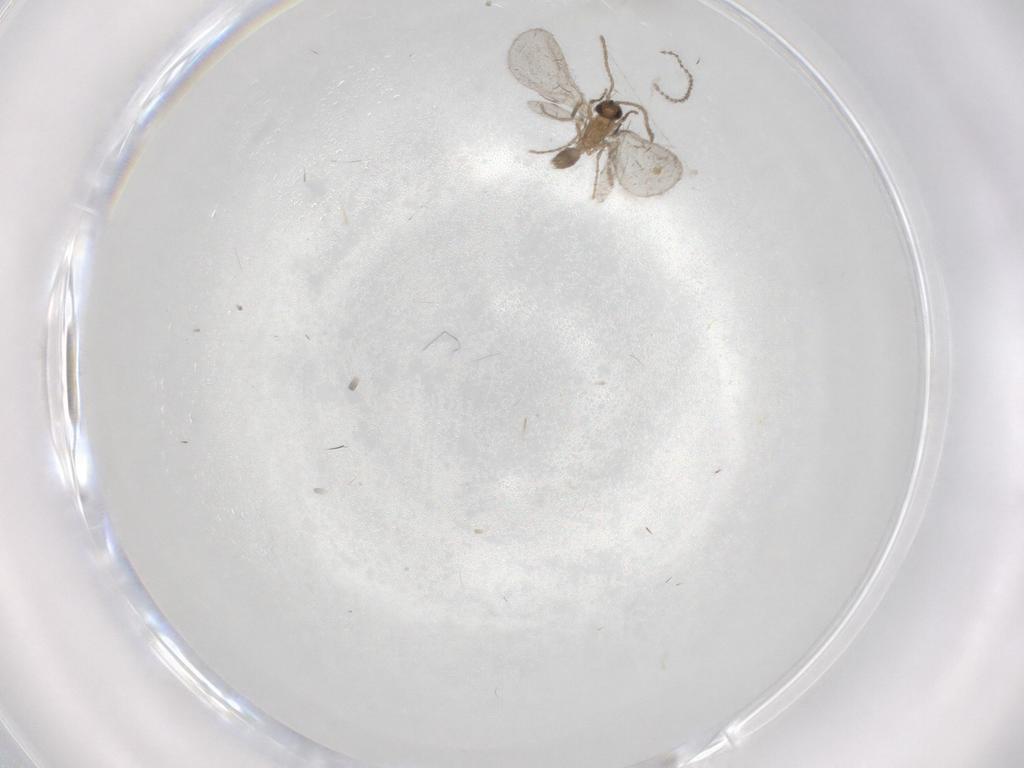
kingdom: Animalia
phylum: Arthropoda
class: Insecta
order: Hymenoptera
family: Formicidae
